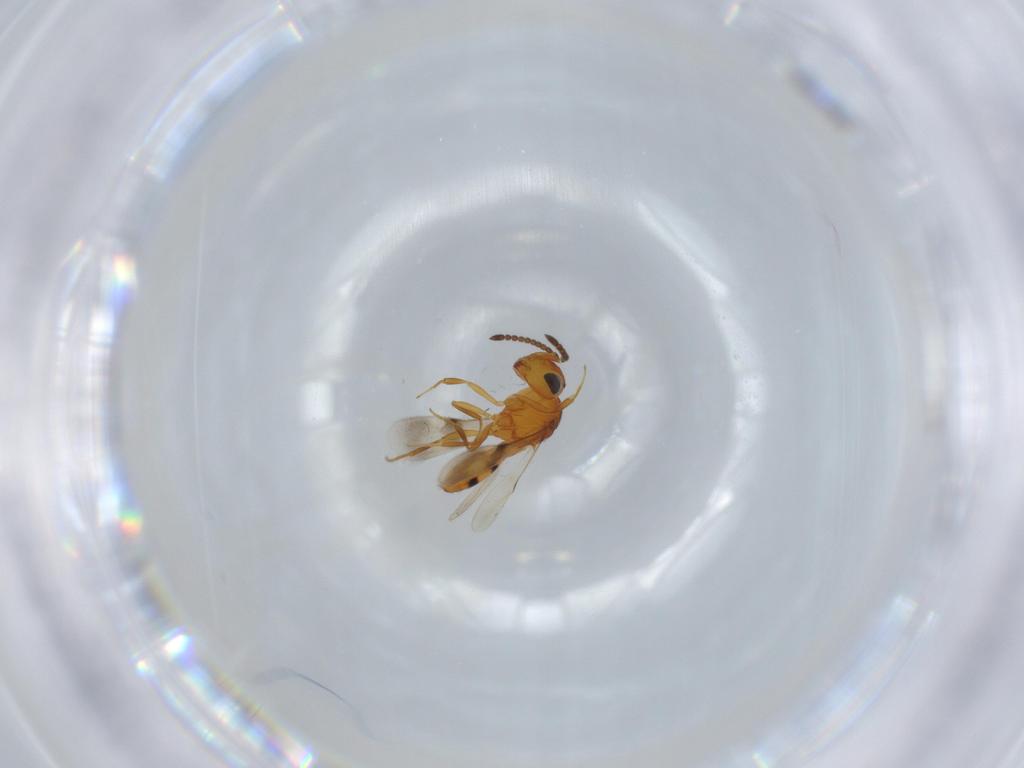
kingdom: Animalia
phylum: Arthropoda
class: Insecta
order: Hymenoptera
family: Scelionidae
